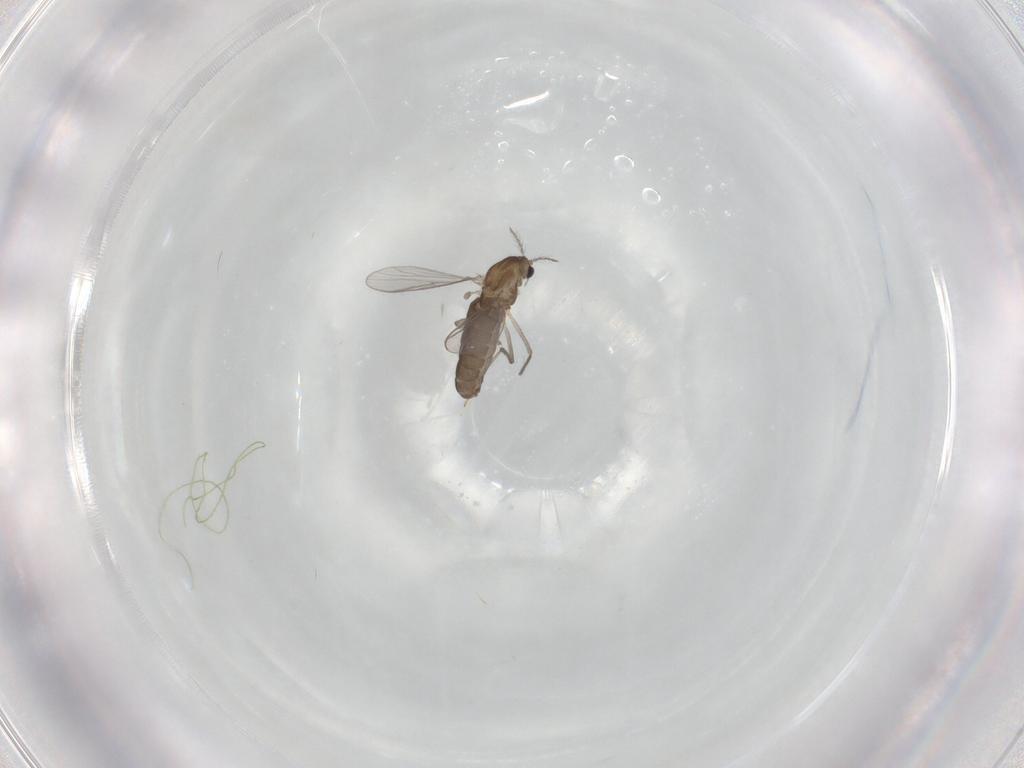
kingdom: Animalia
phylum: Arthropoda
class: Insecta
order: Diptera
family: Chironomidae
